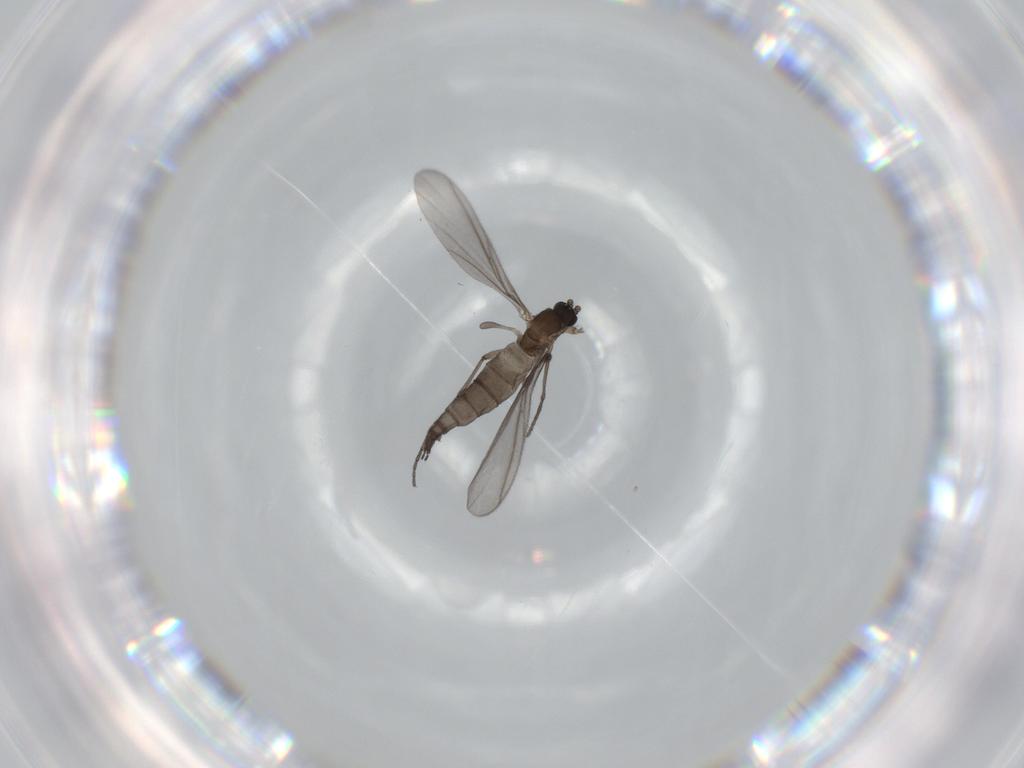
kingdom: Animalia
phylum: Arthropoda
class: Insecta
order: Diptera
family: Sciaridae
